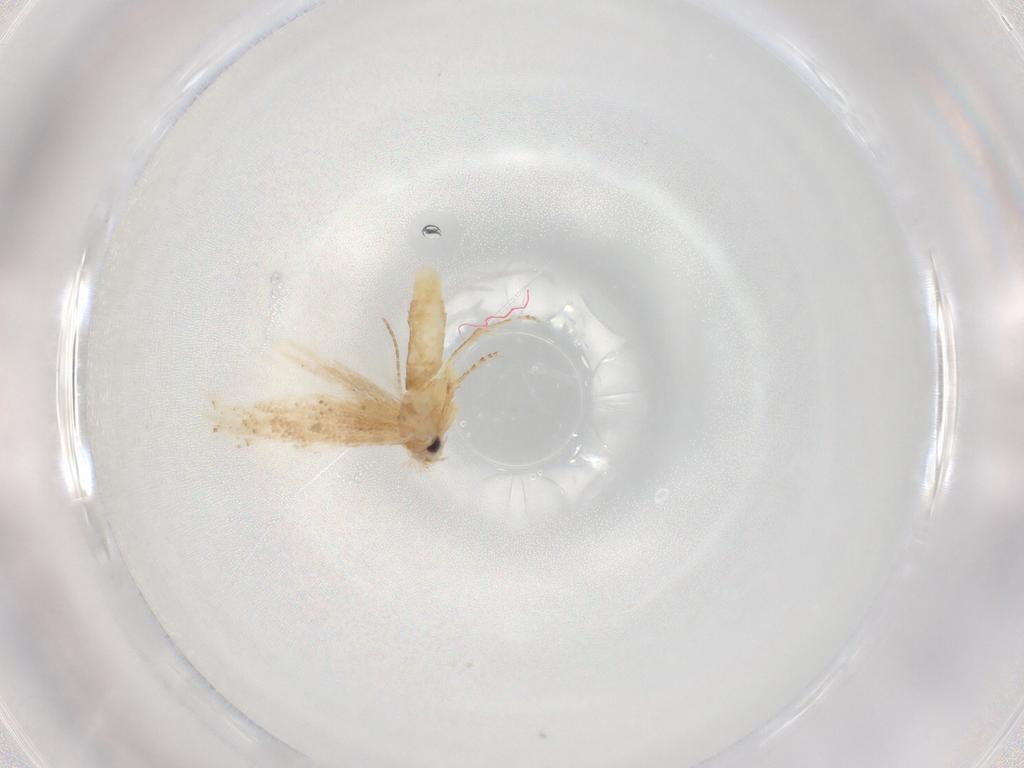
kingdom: Animalia
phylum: Arthropoda
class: Insecta
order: Lepidoptera
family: Depressariidae
